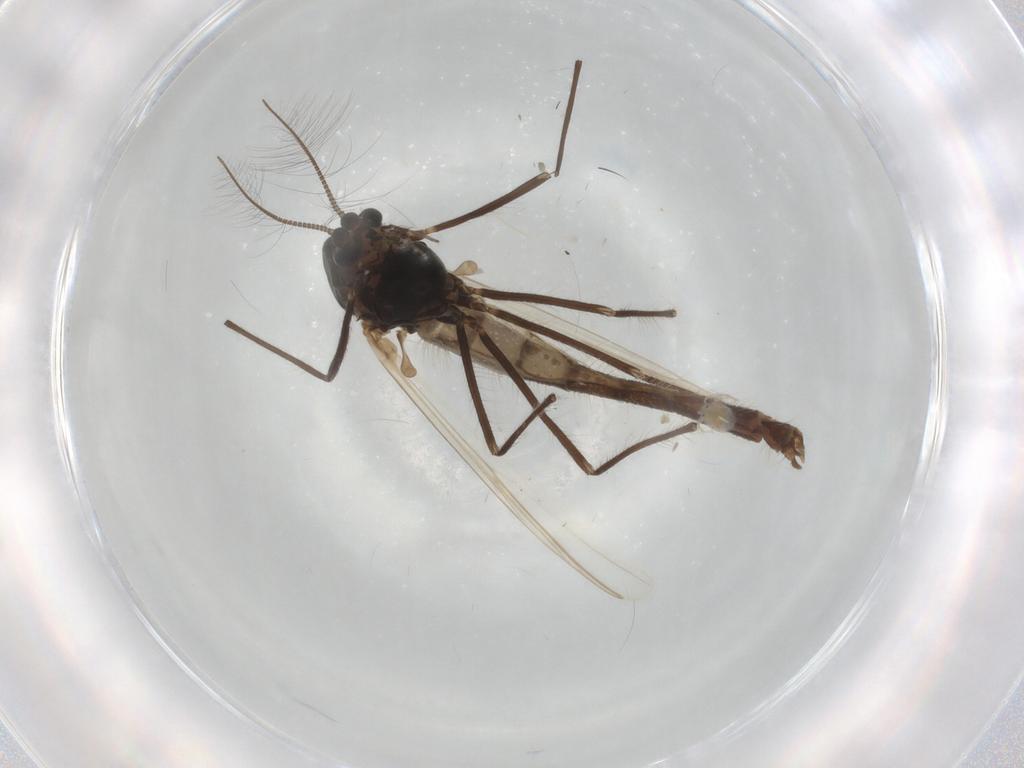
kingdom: Animalia
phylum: Arthropoda
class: Insecta
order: Diptera
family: Chironomidae
